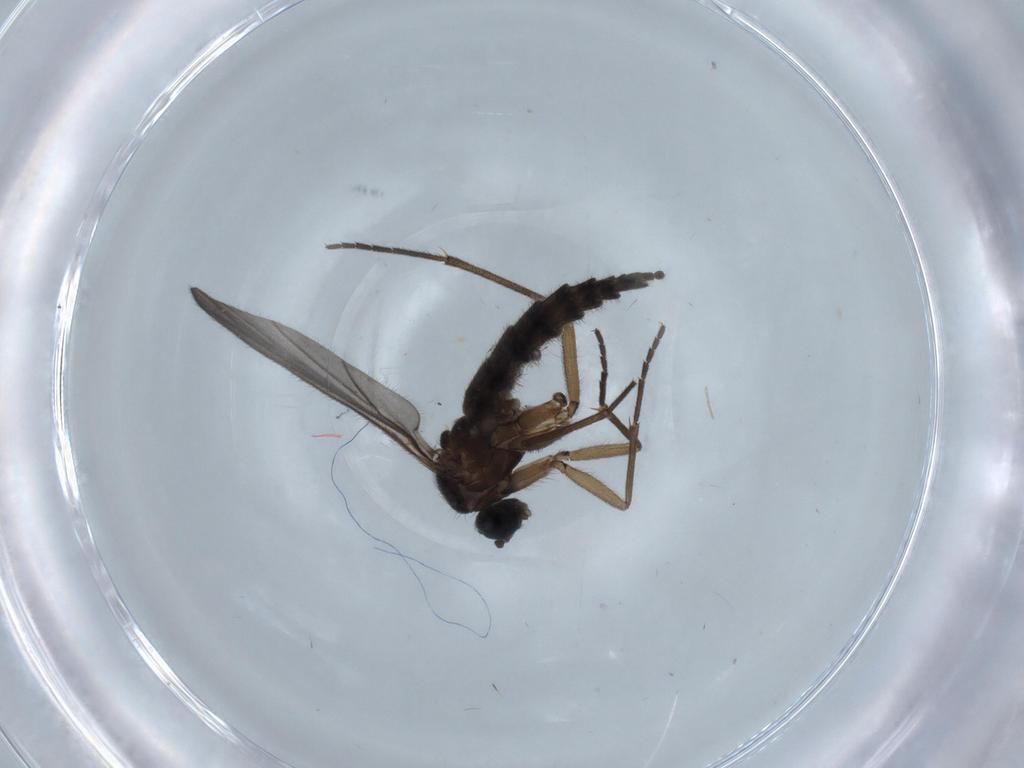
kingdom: Animalia
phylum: Arthropoda
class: Insecta
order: Diptera
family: Sciaridae
